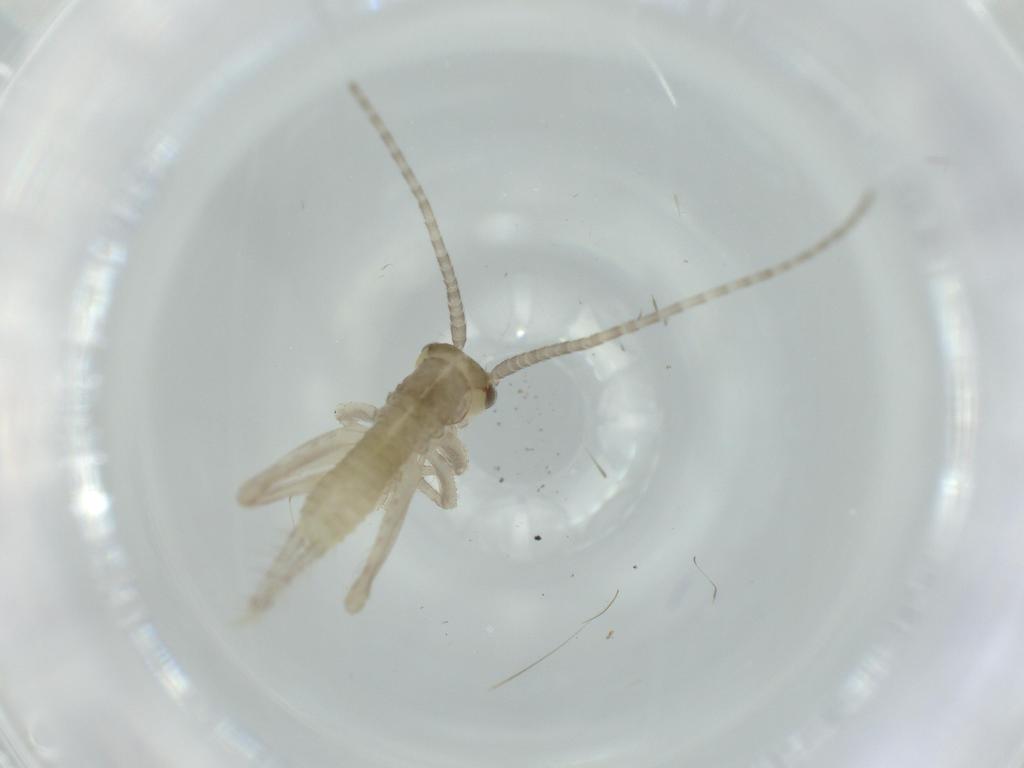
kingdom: Animalia
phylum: Arthropoda
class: Insecta
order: Orthoptera
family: Gryllidae
